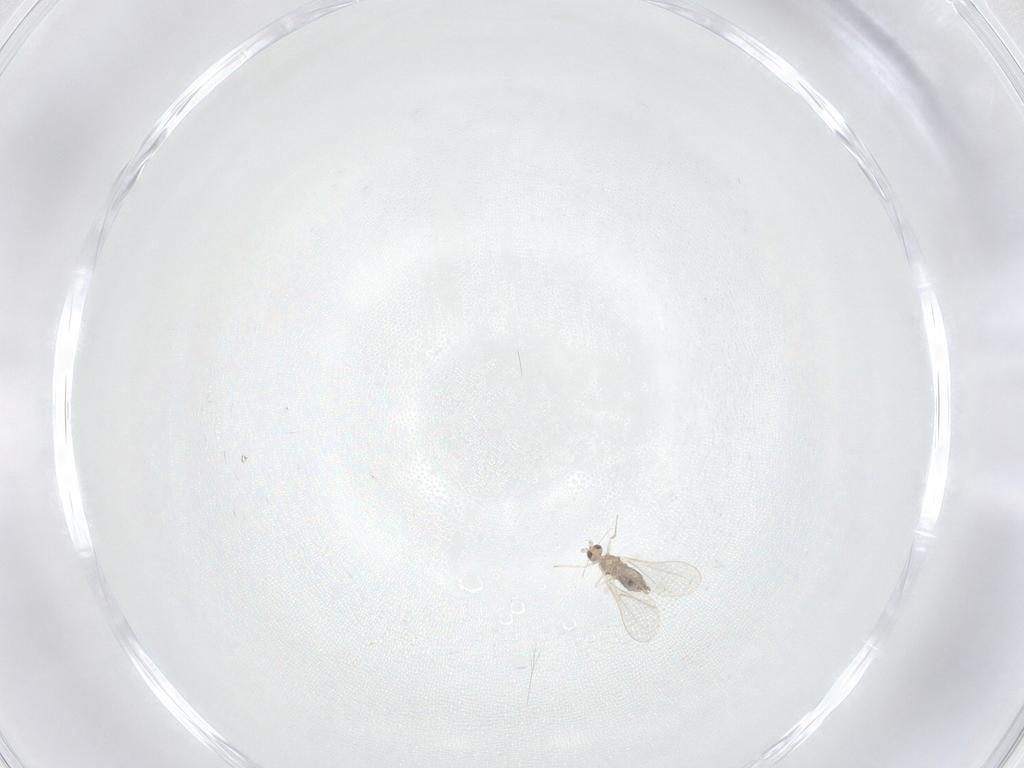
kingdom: Animalia
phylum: Arthropoda
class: Insecta
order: Diptera
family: Cecidomyiidae
